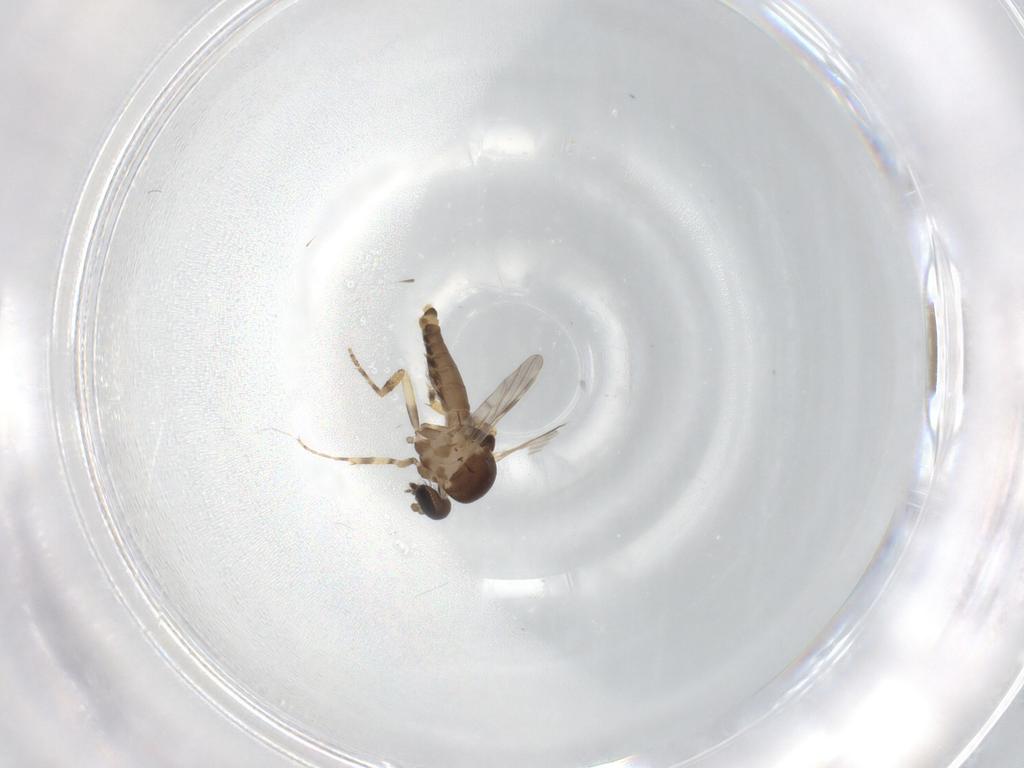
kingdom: Animalia
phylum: Arthropoda
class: Insecta
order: Diptera
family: Ceratopogonidae
